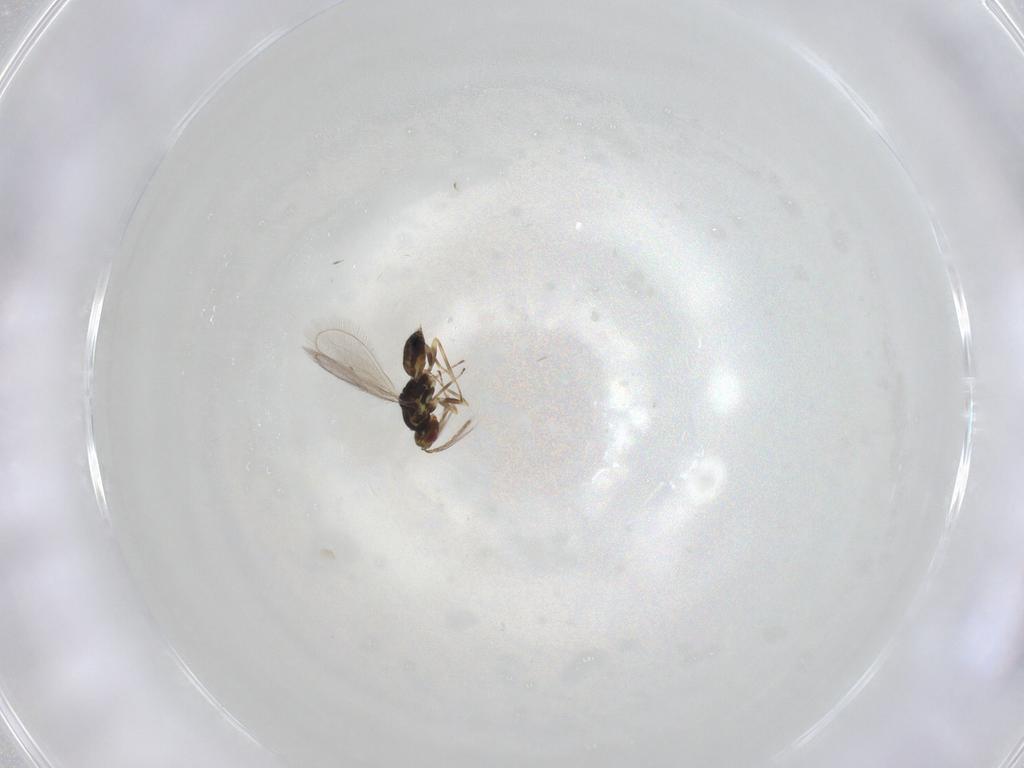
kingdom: Animalia
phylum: Arthropoda
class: Insecta
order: Hymenoptera
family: Eulophidae
